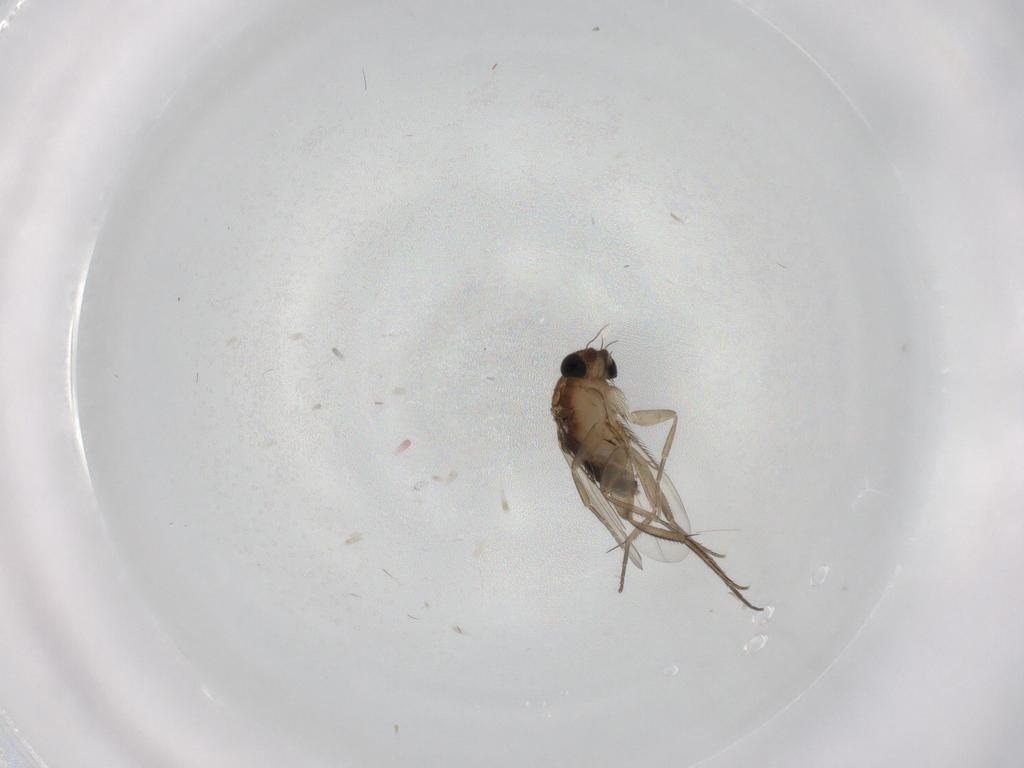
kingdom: Animalia
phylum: Arthropoda
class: Insecta
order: Diptera
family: Phoridae
